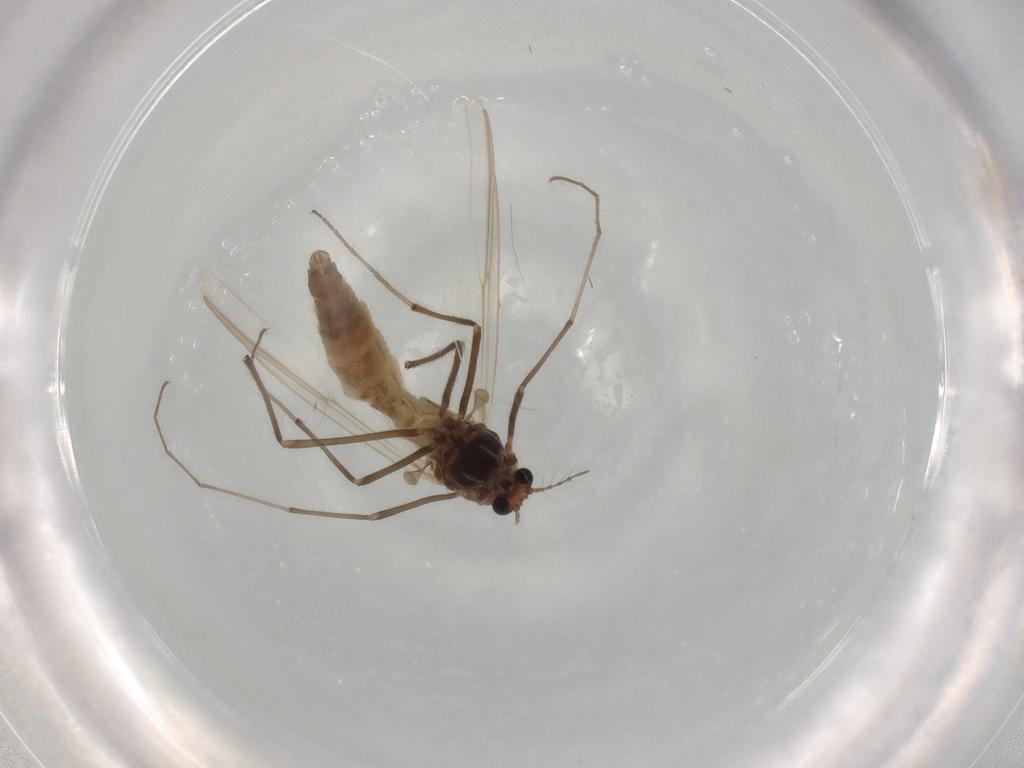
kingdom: Animalia
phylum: Arthropoda
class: Insecta
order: Diptera
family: Chironomidae
